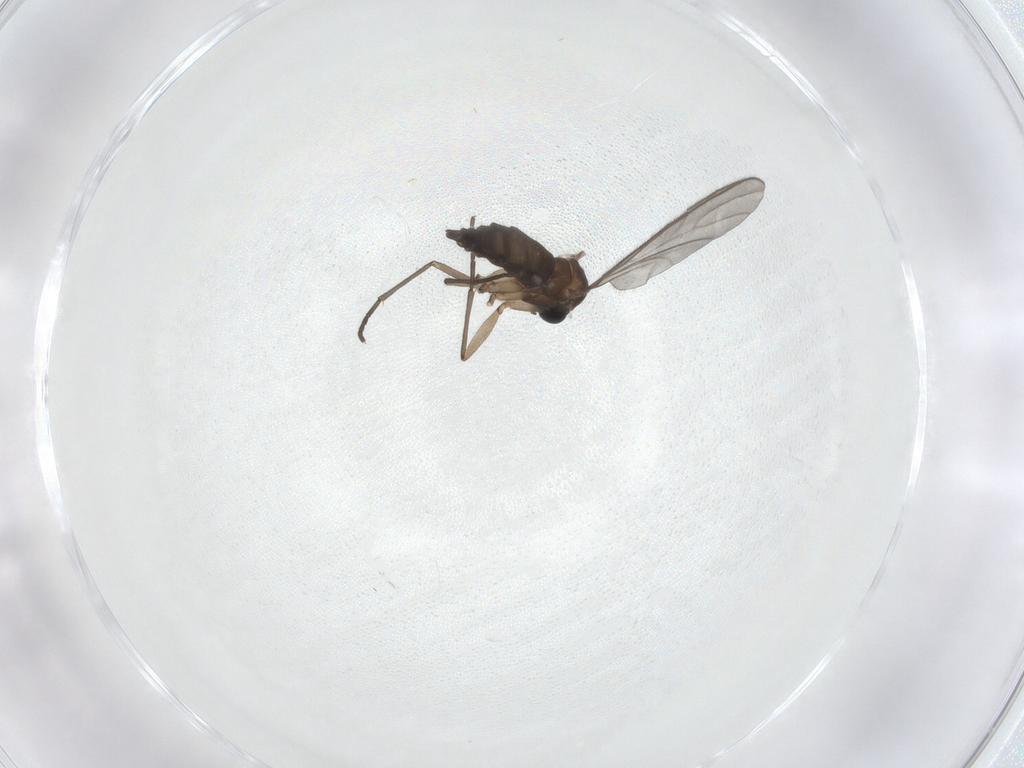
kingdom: Animalia
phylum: Arthropoda
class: Insecta
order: Diptera
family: Sciaridae
